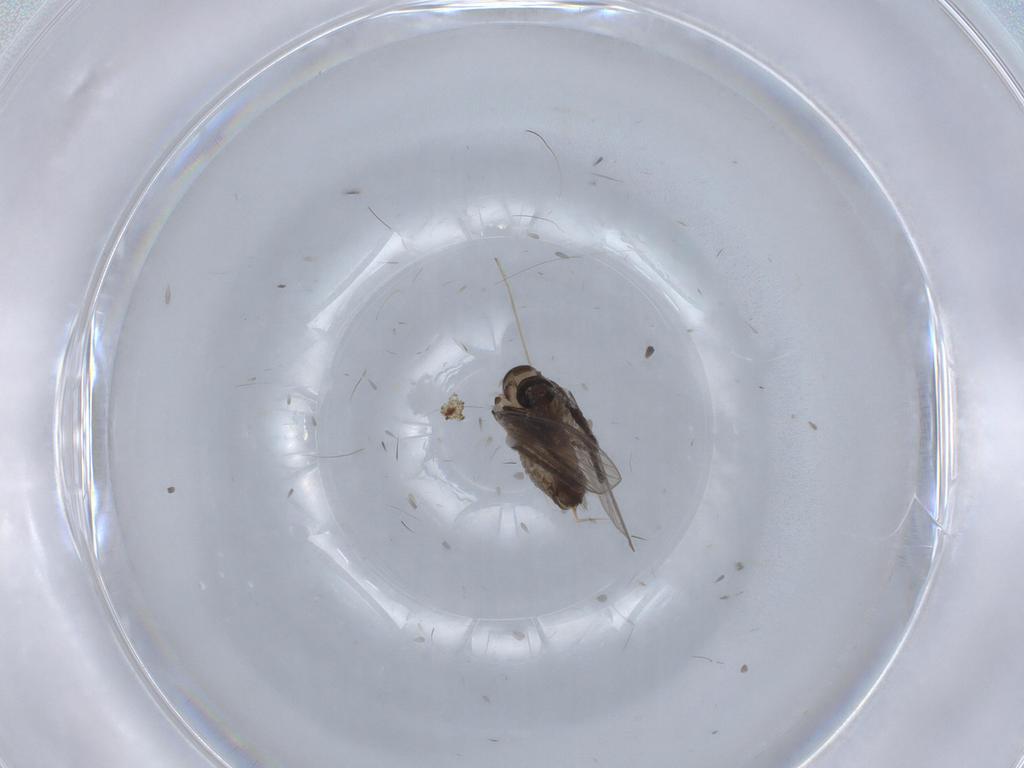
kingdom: Animalia
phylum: Arthropoda
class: Insecta
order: Diptera
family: Psychodidae
